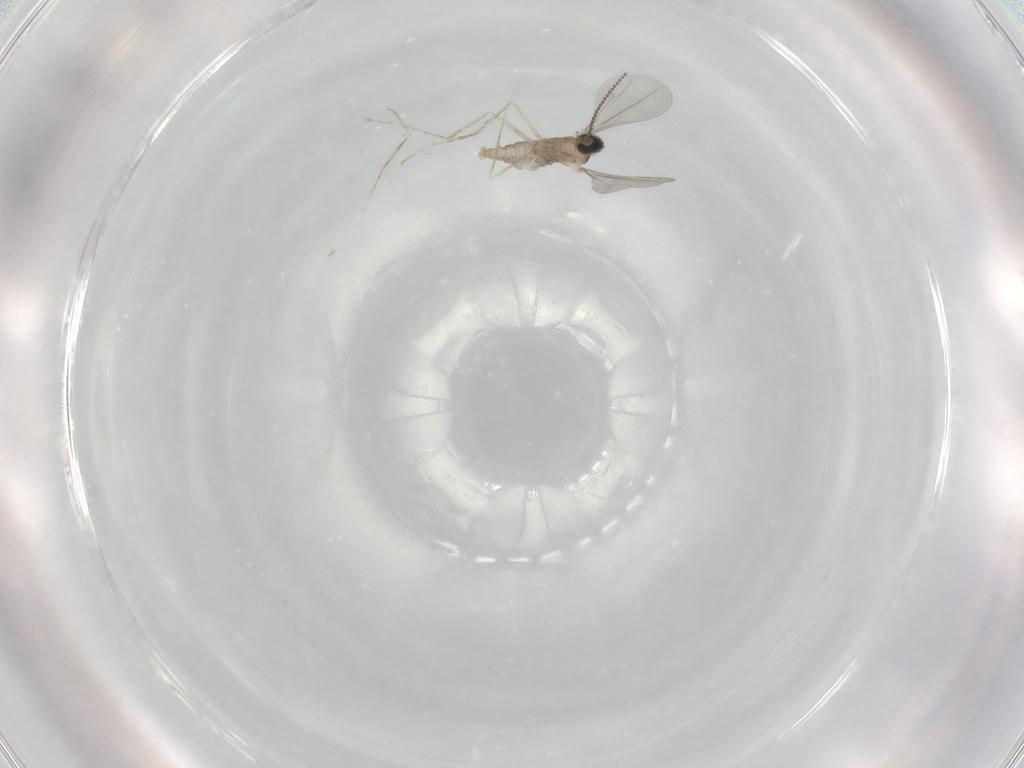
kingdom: Animalia
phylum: Arthropoda
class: Insecta
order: Diptera
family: Cecidomyiidae
